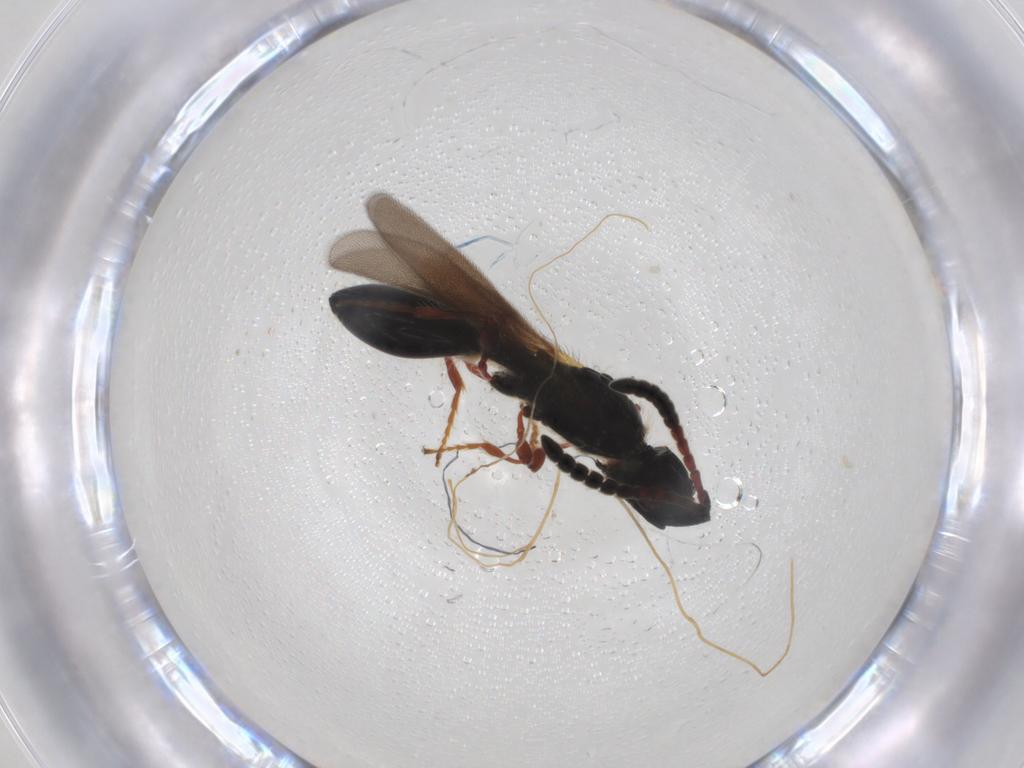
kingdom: Animalia
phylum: Arthropoda
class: Insecta
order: Hymenoptera
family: Diapriidae
